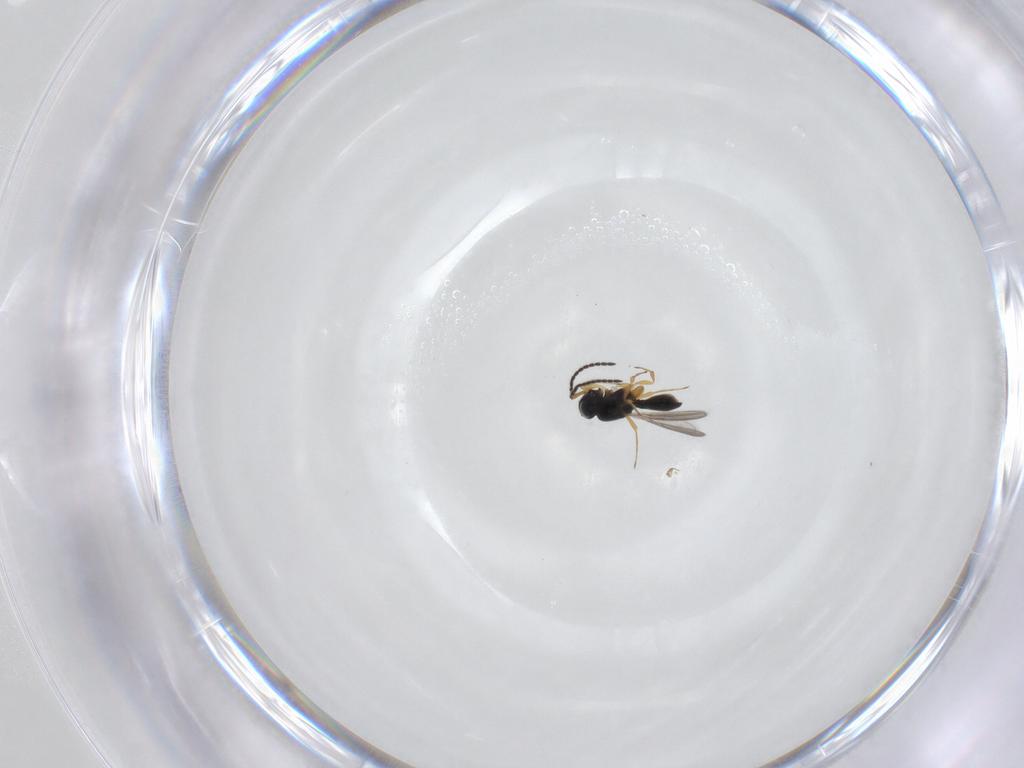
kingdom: Animalia
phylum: Arthropoda
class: Insecta
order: Hymenoptera
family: Scelionidae
